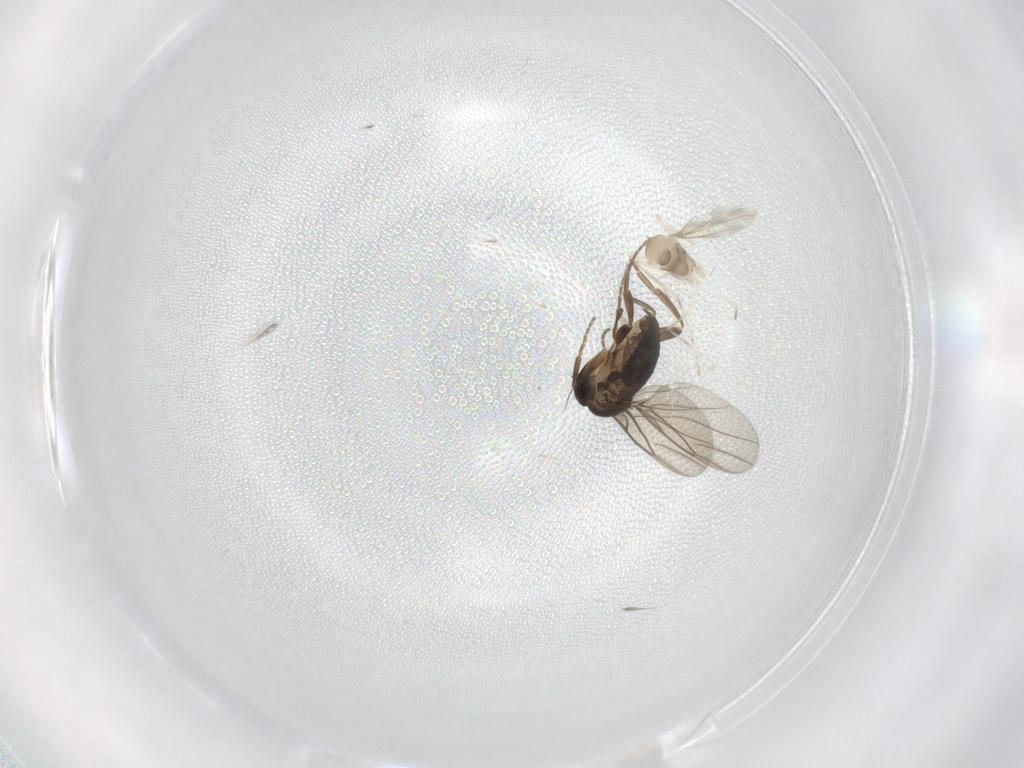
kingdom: Animalia
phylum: Arthropoda
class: Insecta
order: Diptera
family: Phoridae
